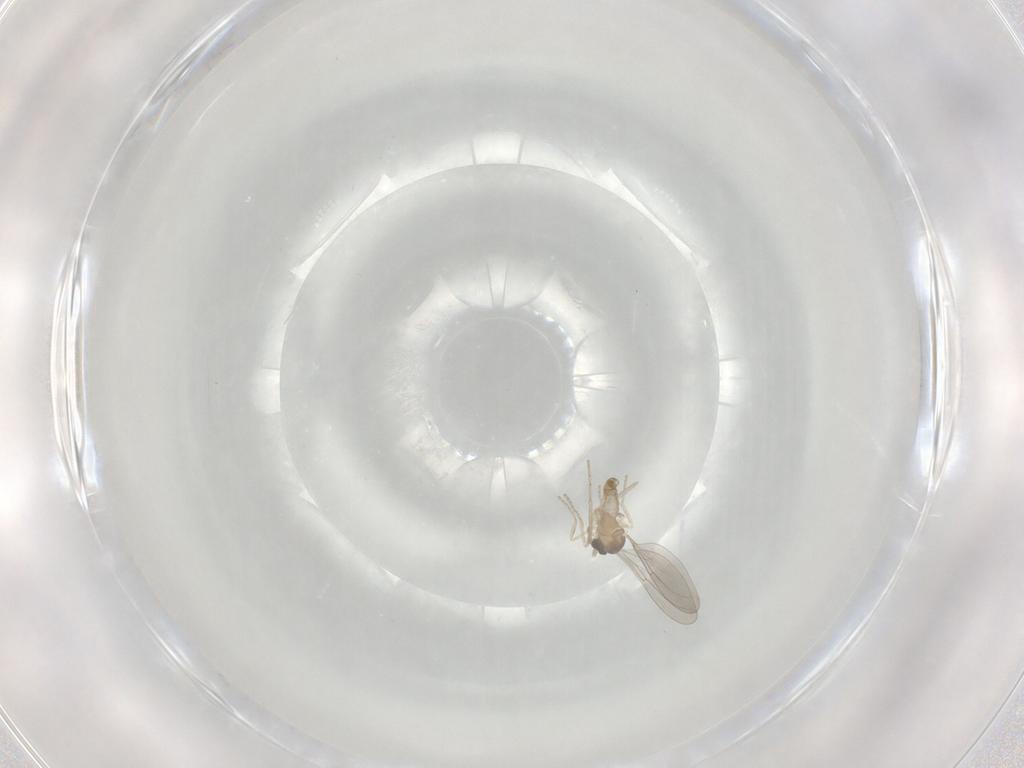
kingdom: Animalia
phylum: Arthropoda
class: Insecta
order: Diptera
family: Cecidomyiidae
